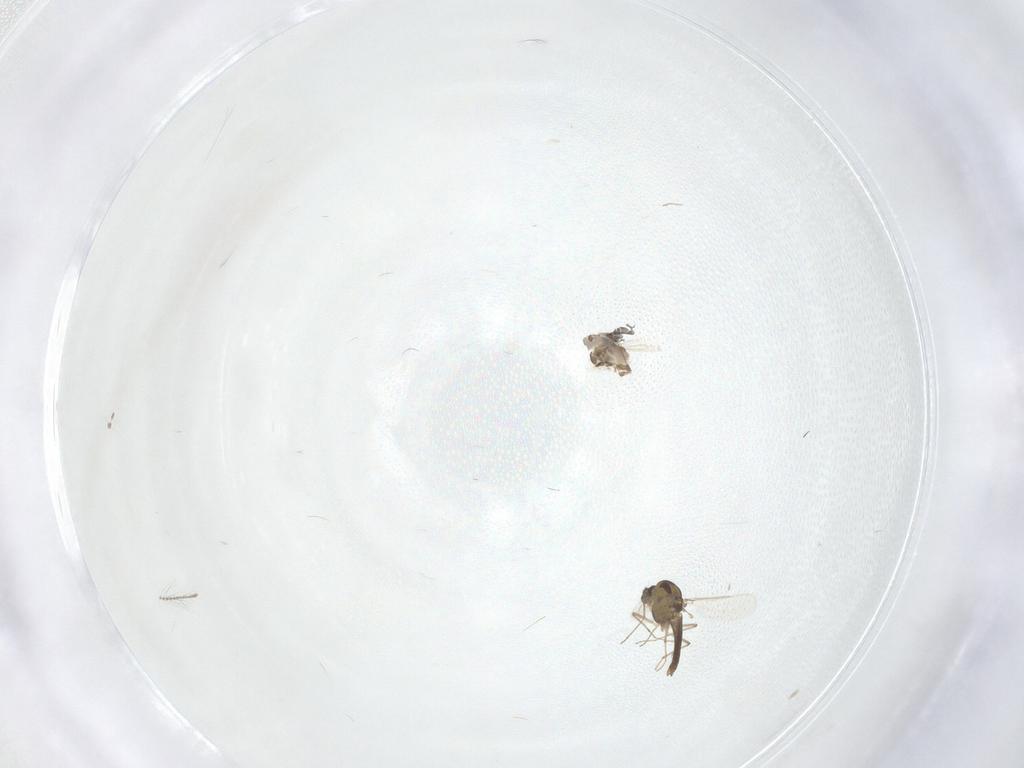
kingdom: Animalia
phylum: Arthropoda
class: Insecta
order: Diptera
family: Chironomidae
